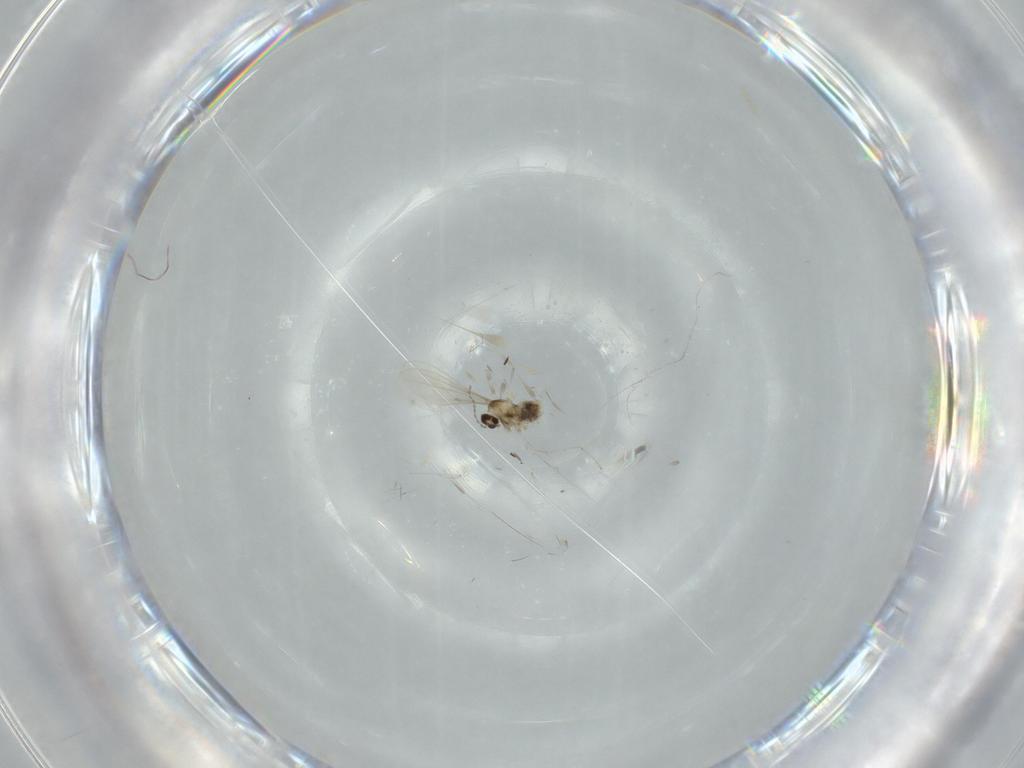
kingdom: Animalia
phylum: Arthropoda
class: Insecta
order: Diptera
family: Cecidomyiidae
